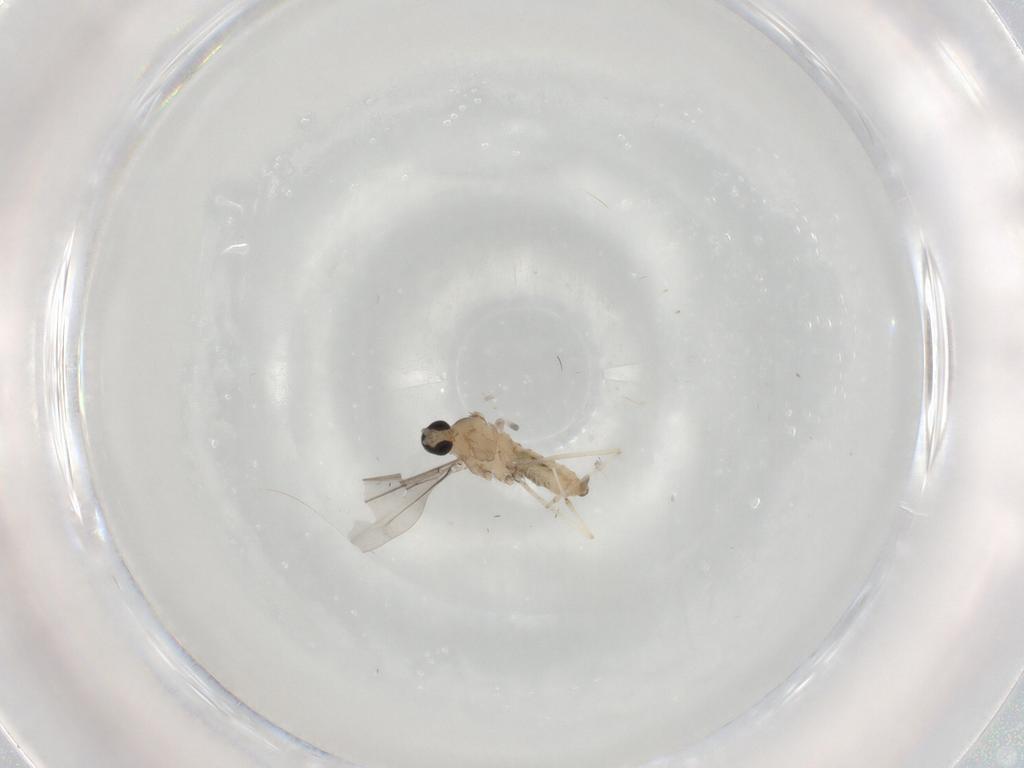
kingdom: Animalia
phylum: Arthropoda
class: Insecta
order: Diptera
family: Cecidomyiidae
